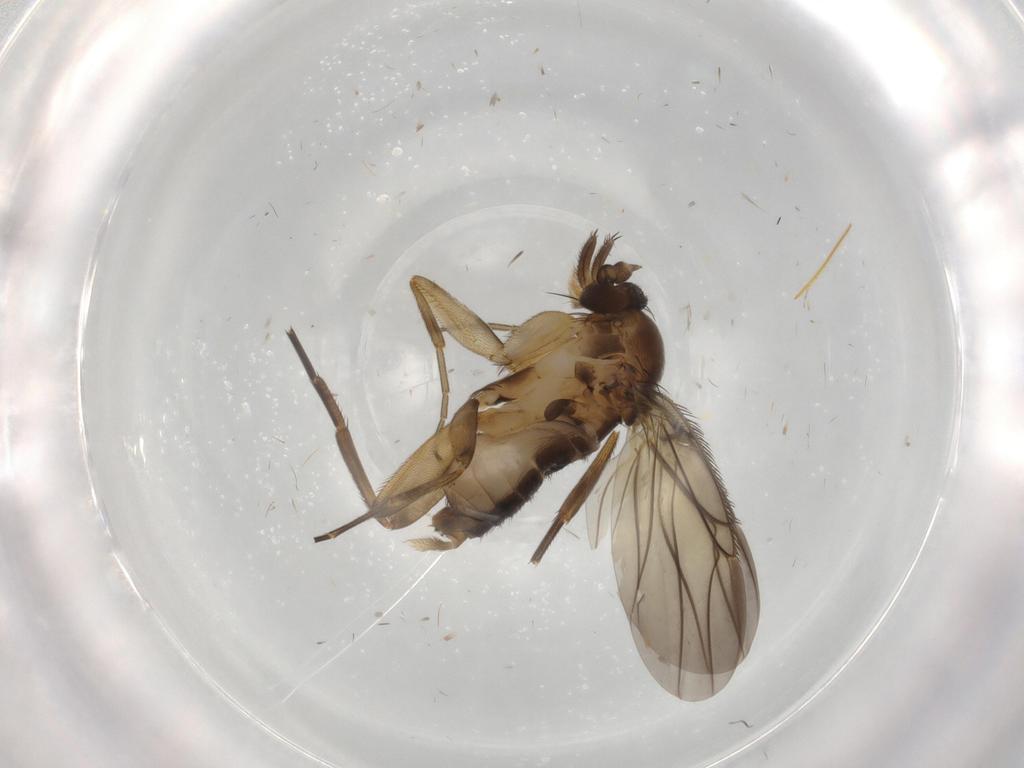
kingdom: Animalia
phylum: Arthropoda
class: Insecta
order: Diptera
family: Phoridae
